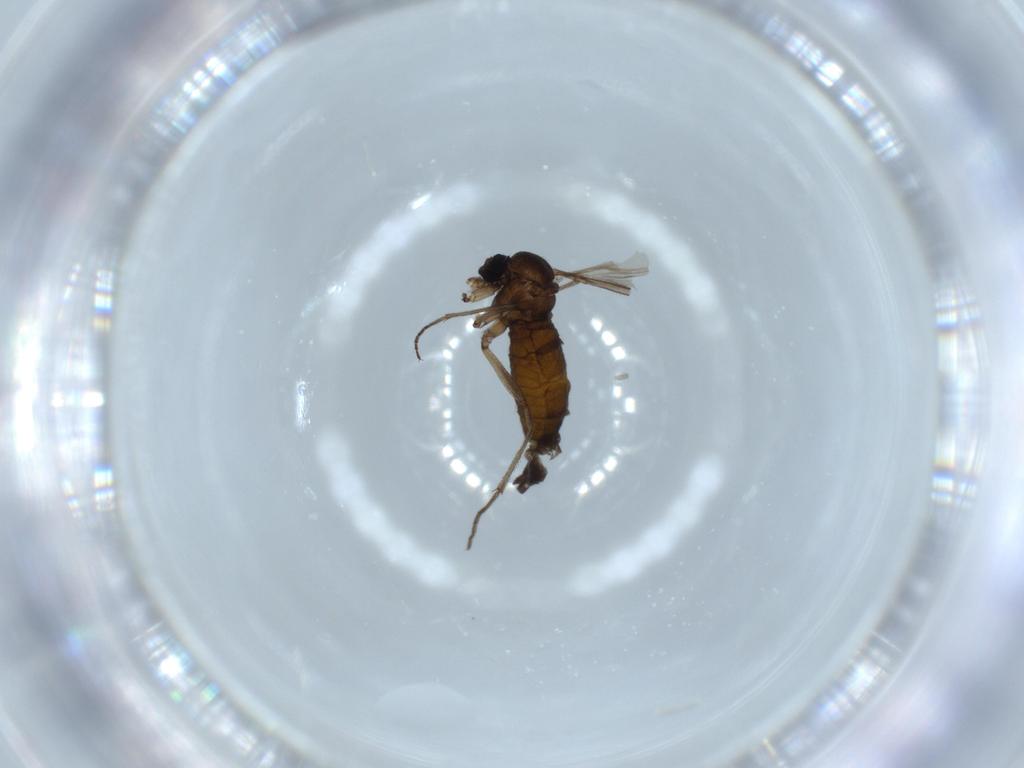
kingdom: Animalia
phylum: Arthropoda
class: Insecta
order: Diptera
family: Sciaridae
